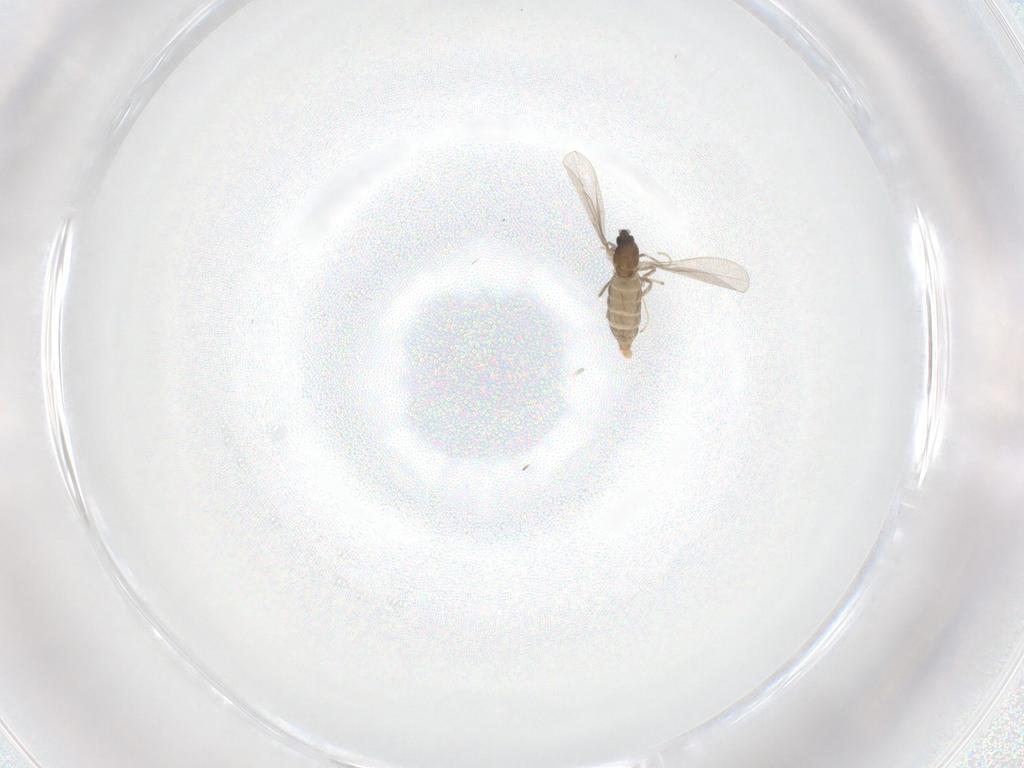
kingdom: Animalia
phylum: Arthropoda
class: Insecta
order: Diptera
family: Cecidomyiidae
